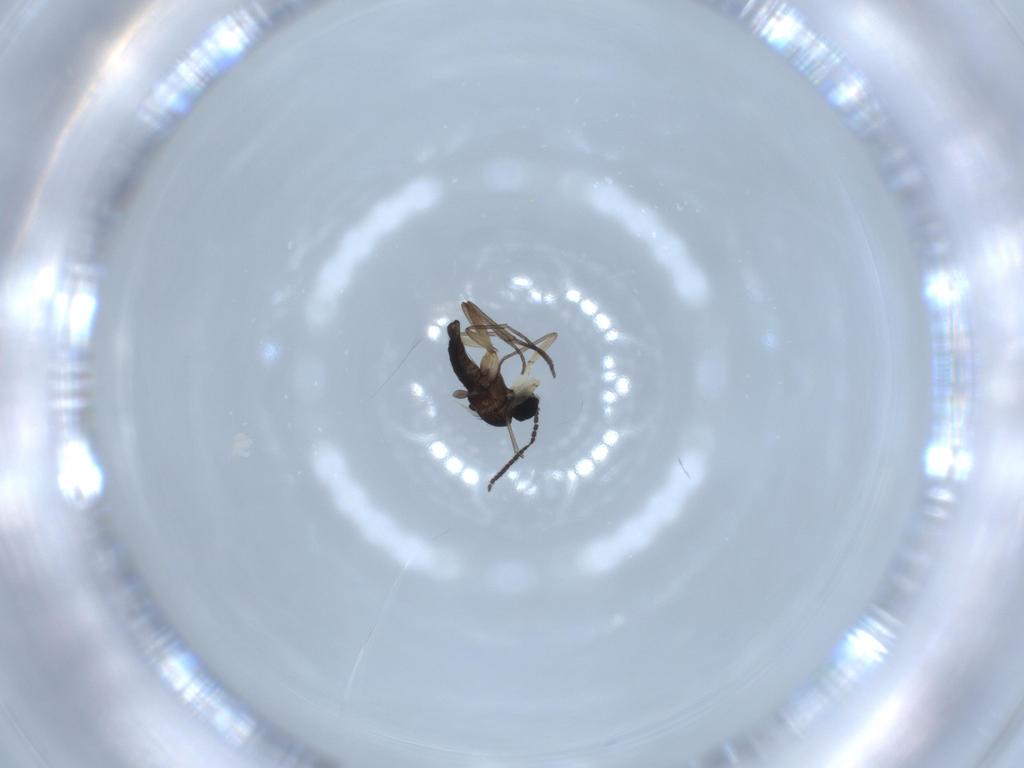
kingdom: Animalia
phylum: Arthropoda
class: Insecta
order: Diptera
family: Sciaridae
